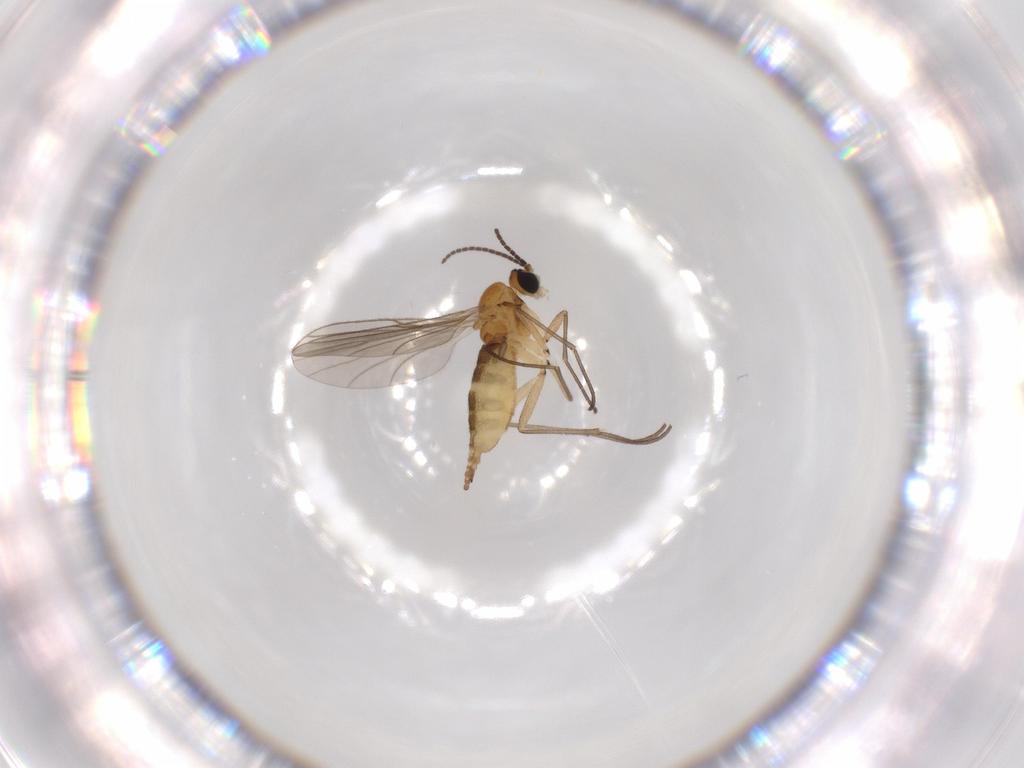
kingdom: Animalia
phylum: Arthropoda
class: Insecta
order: Diptera
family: Sciaridae
